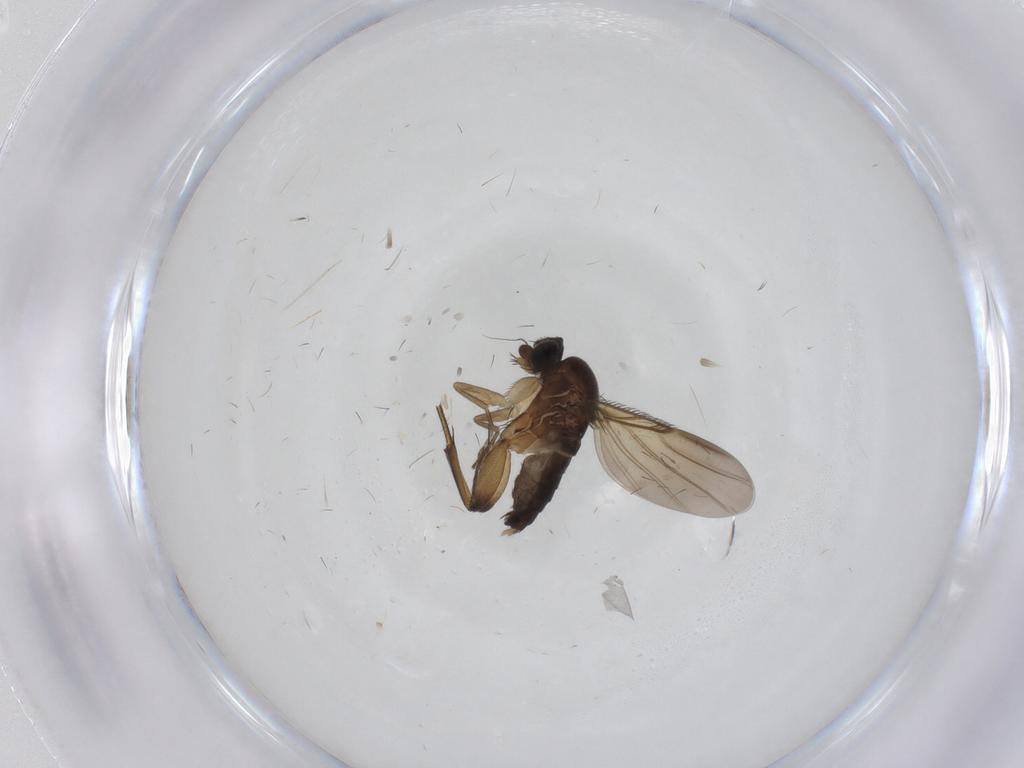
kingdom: Animalia
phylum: Arthropoda
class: Insecta
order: Diptera
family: Phoridae
